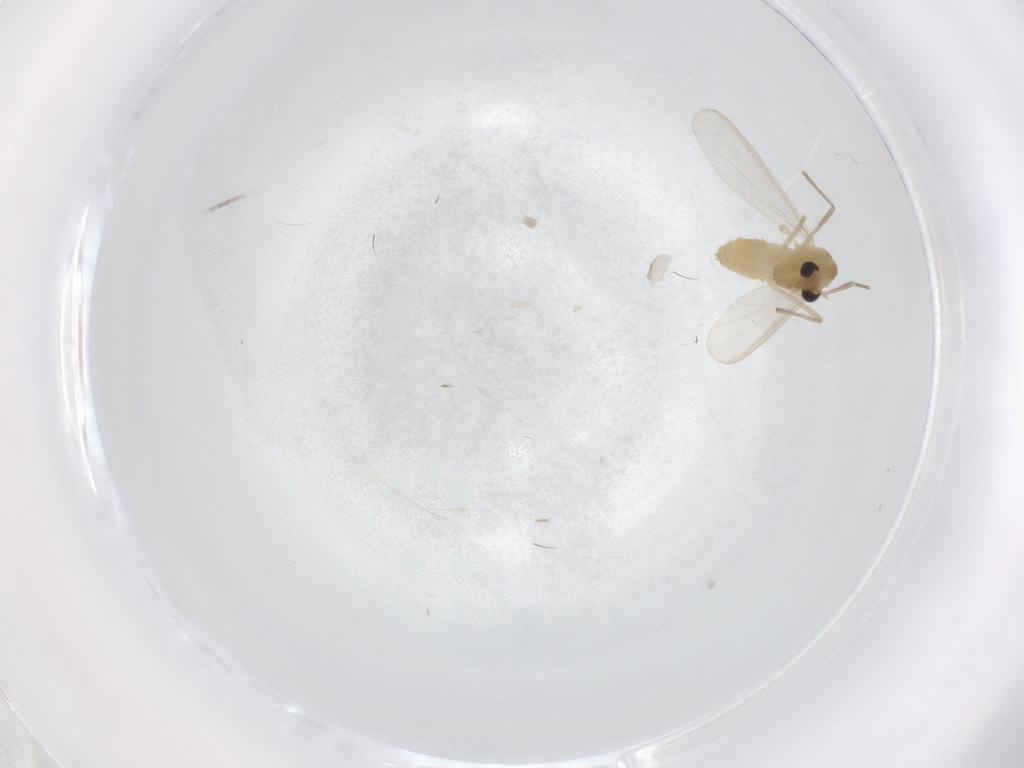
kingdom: Animalia
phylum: Arthropoda
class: Insecta
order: Diptera
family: Chironomidae
